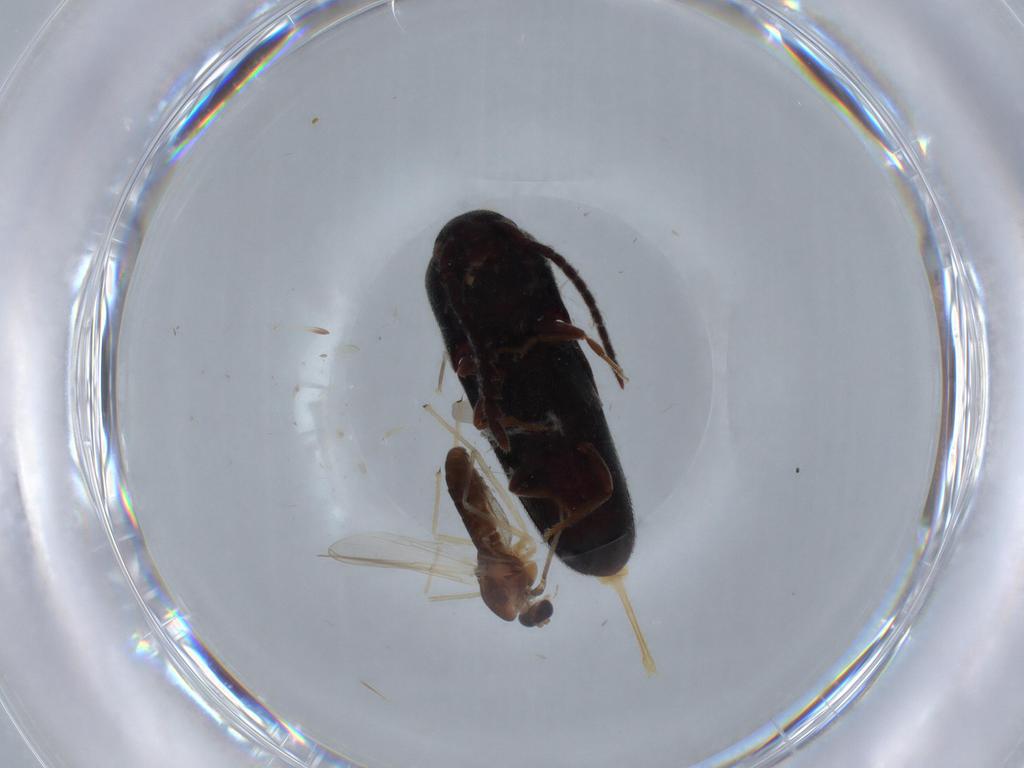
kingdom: Animalia
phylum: Arthropoda
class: Insecta
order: Coleoptera
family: Eucnemidae
